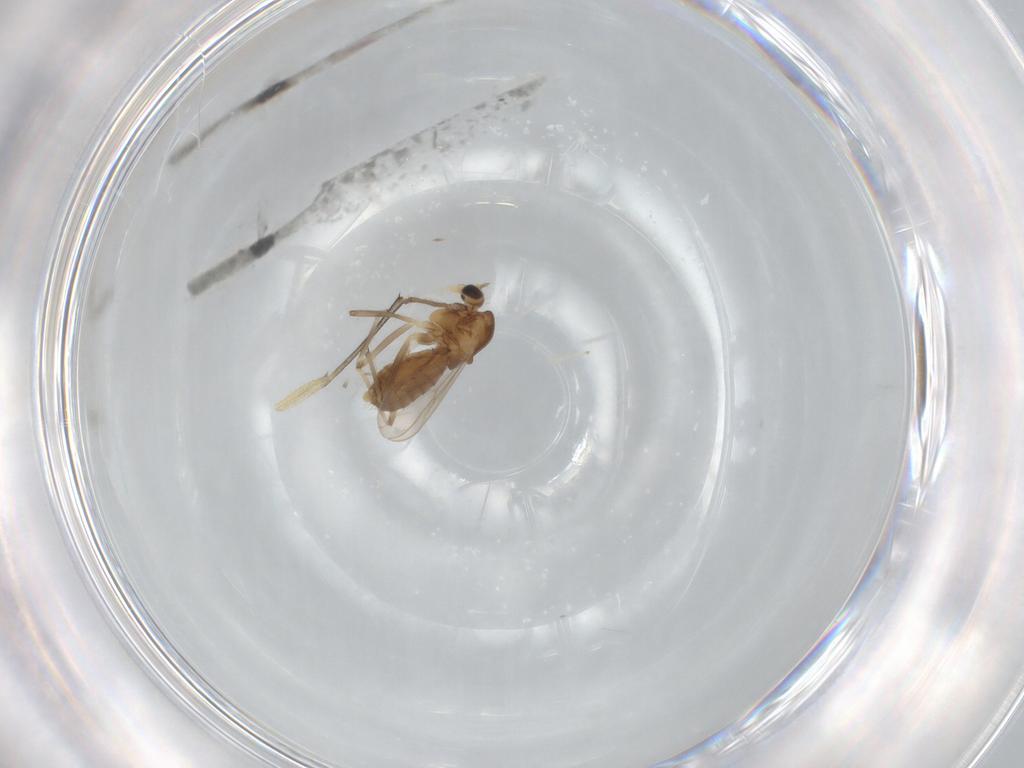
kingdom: Animalia
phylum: Arthropoda
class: Insecta
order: Diptera
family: Chironomidae
